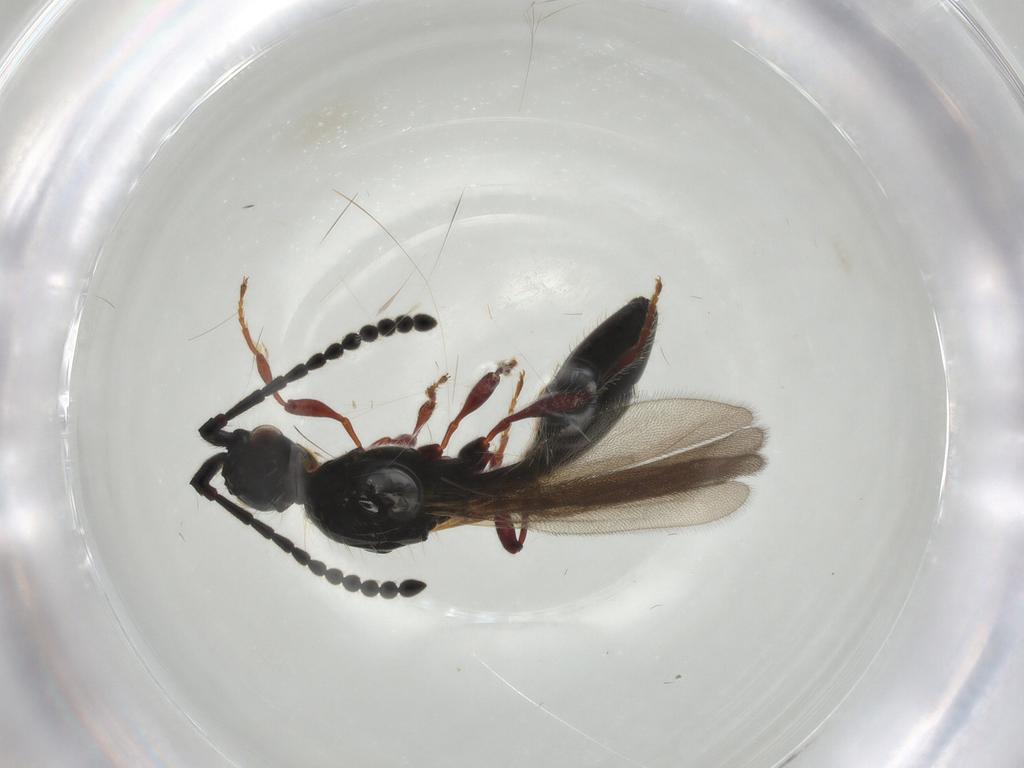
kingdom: Animalia
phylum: Arthropoda
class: Insecta
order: Hymenoptera
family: Diapriidae
